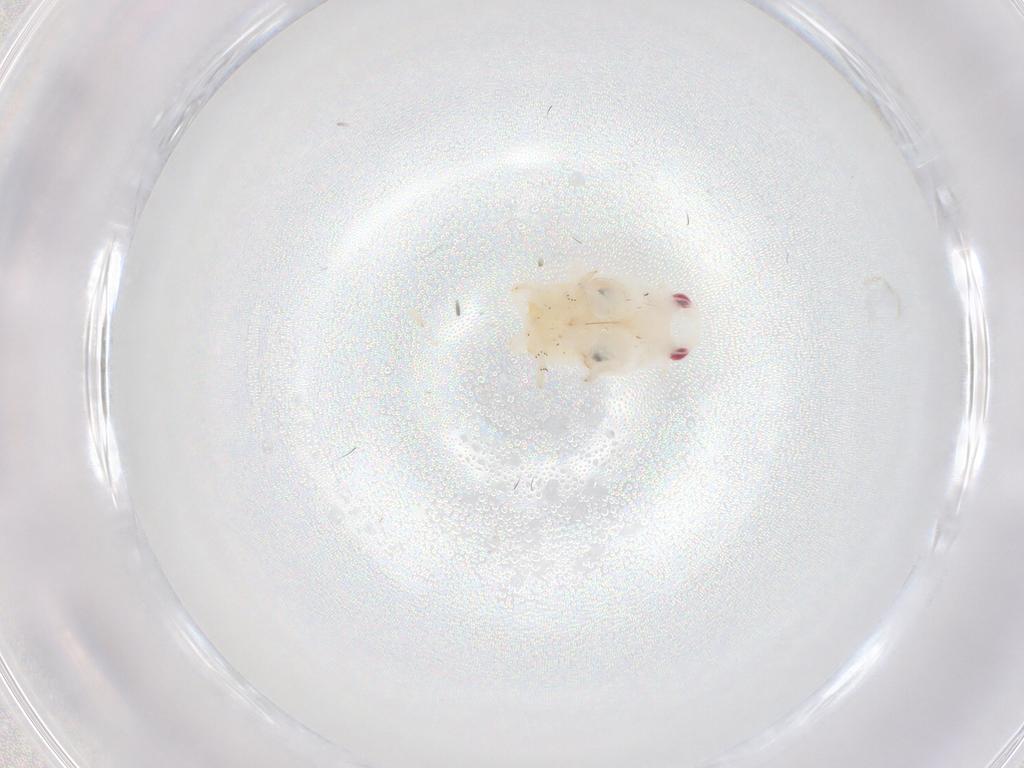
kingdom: Animalia
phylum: Arthropoda
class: Insecta
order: Hemiptera
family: Flatidae
